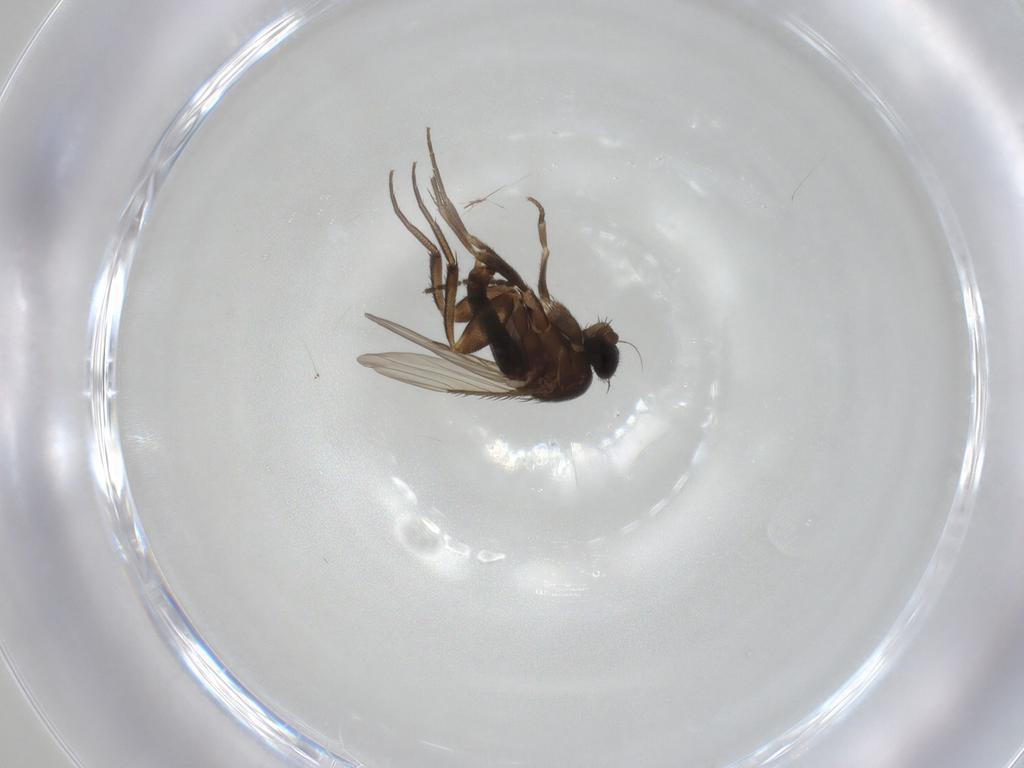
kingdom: Animalia
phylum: Arthropoda
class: Insecta
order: Diptera
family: Phoridae
